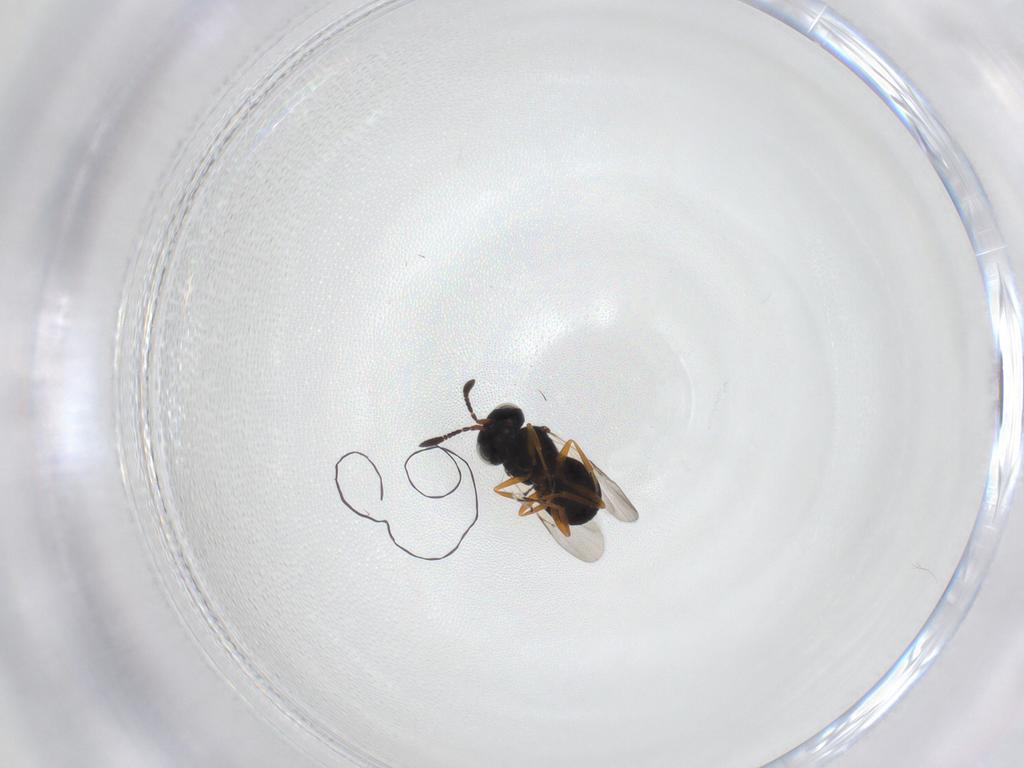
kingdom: Animalia
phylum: Arthropoda
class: Insecta
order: Hymenoptera
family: Scelionidae
